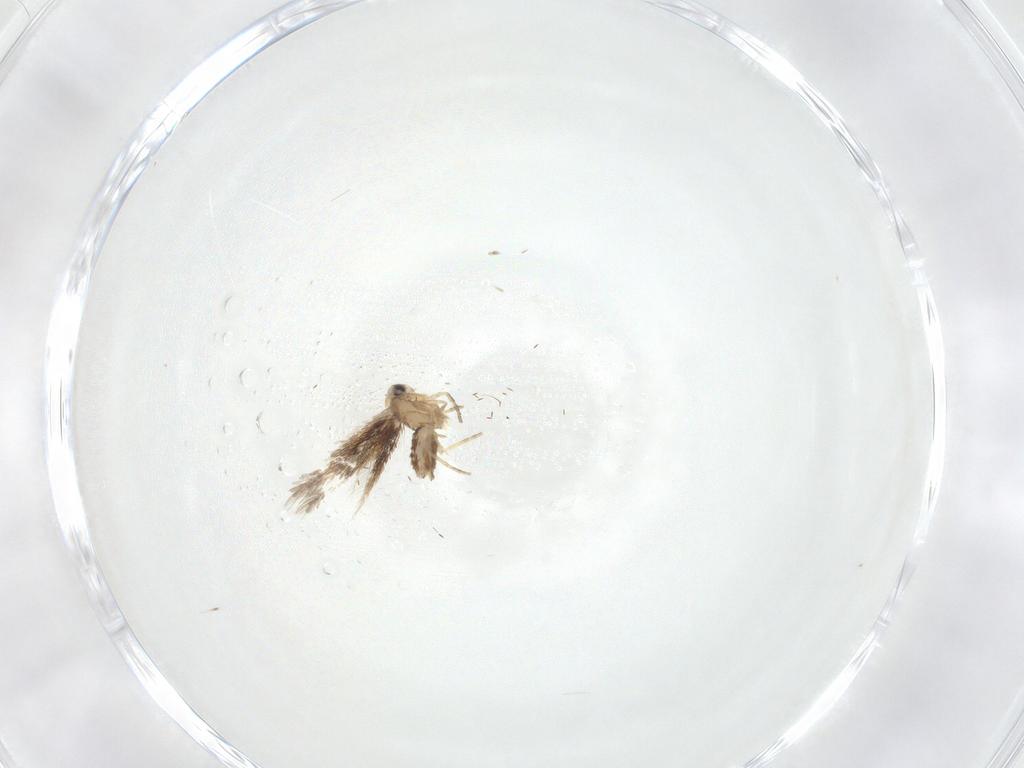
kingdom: Animalia
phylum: Arthropoda
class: Insecta
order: Lepidoptera
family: Nepticulidae
